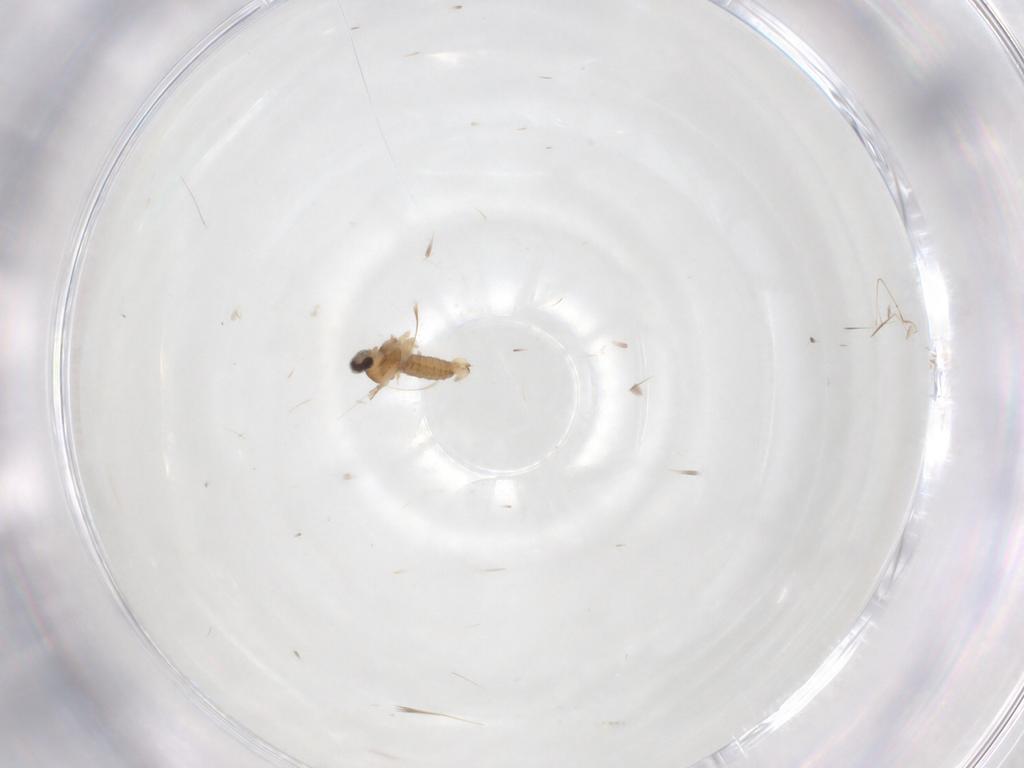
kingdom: Animalia
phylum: Arthropoda
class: Insecta
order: Diptera
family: Cecidomyiidae
